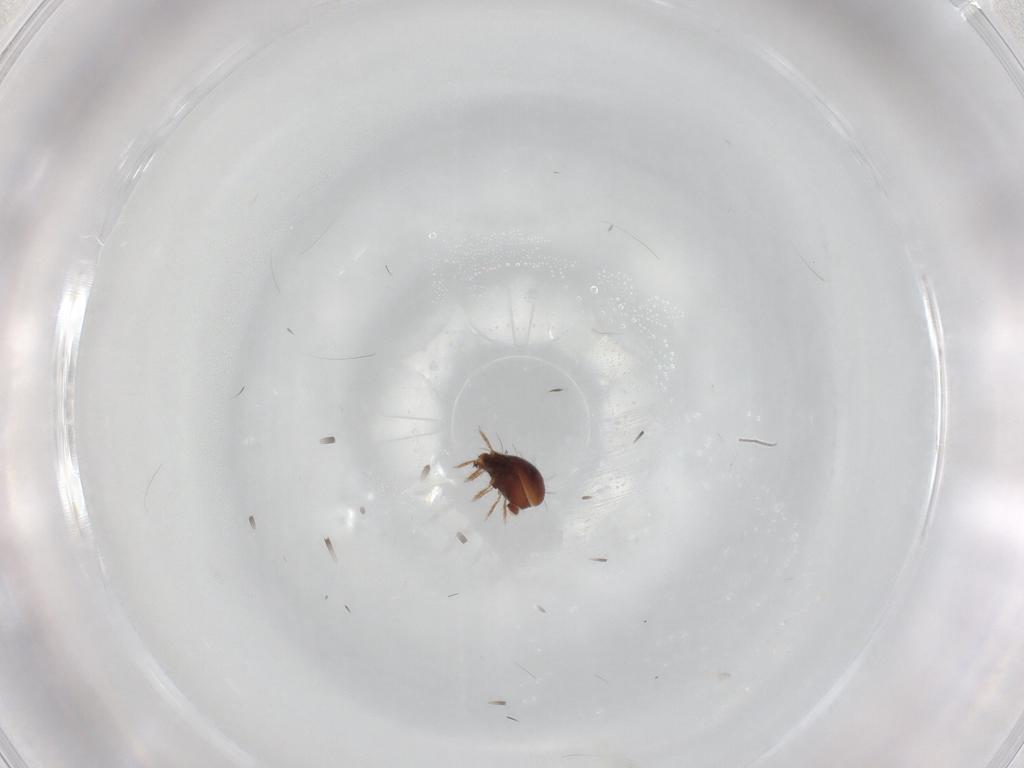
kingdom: Animalia
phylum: Arthropoda
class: Arachnida
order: Sarcoptiformes
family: Humerobatidae
